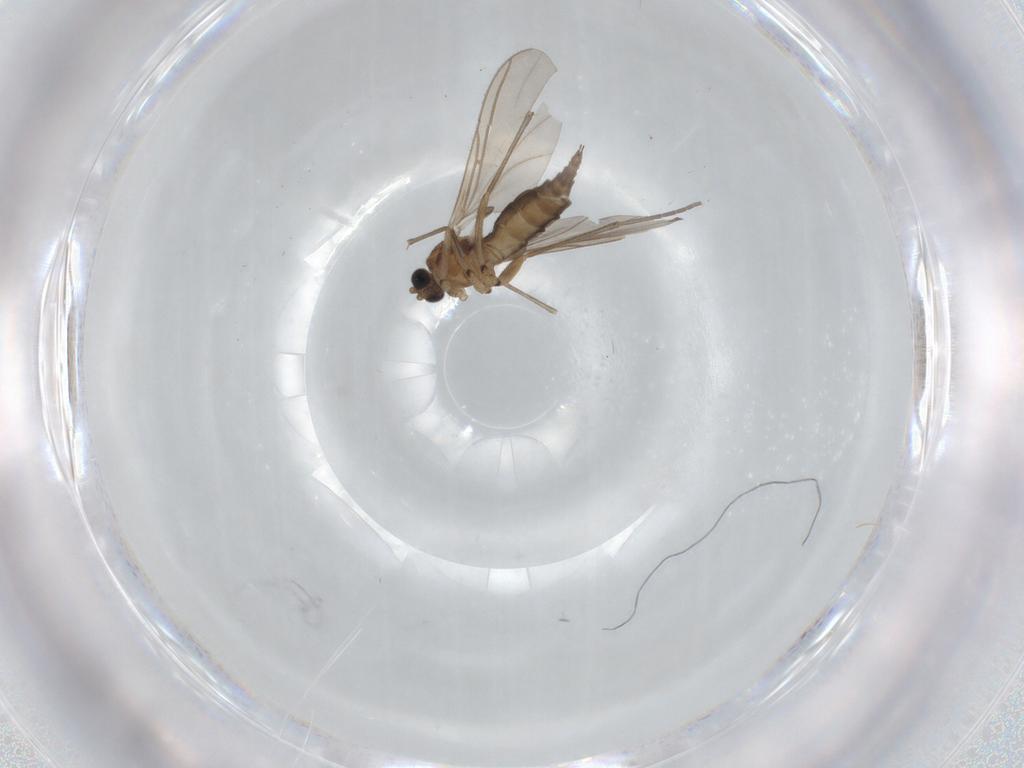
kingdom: Animalia
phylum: Arthropoda
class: Insecta
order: Diptera
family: Sciaridae
